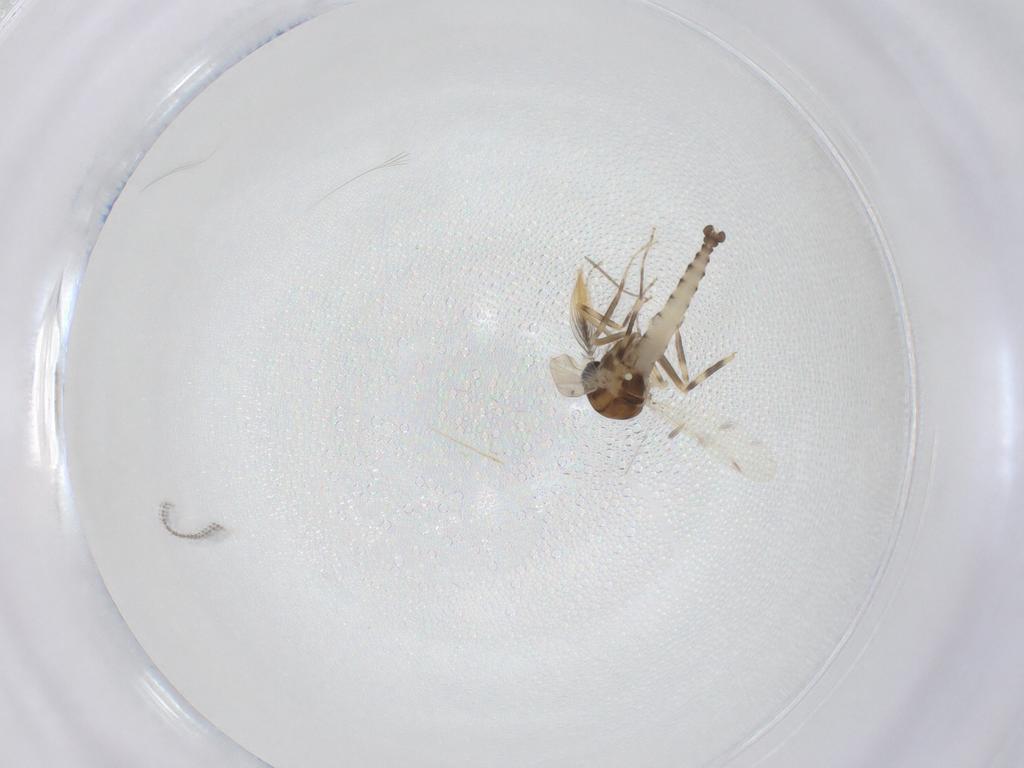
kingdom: Animalia
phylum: Arthropoda
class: Insecta
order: Diptera
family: Ceratopogonidae
